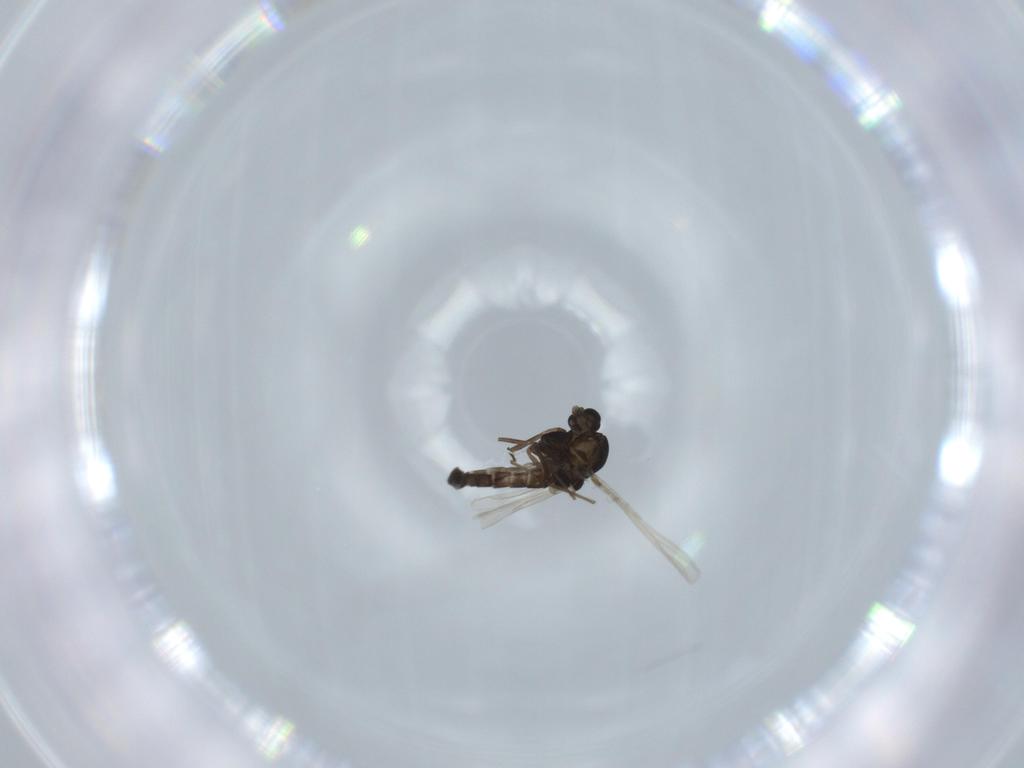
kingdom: Animalia
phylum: Arthropoda
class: Insecta
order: Diptera
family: Chironomidae
